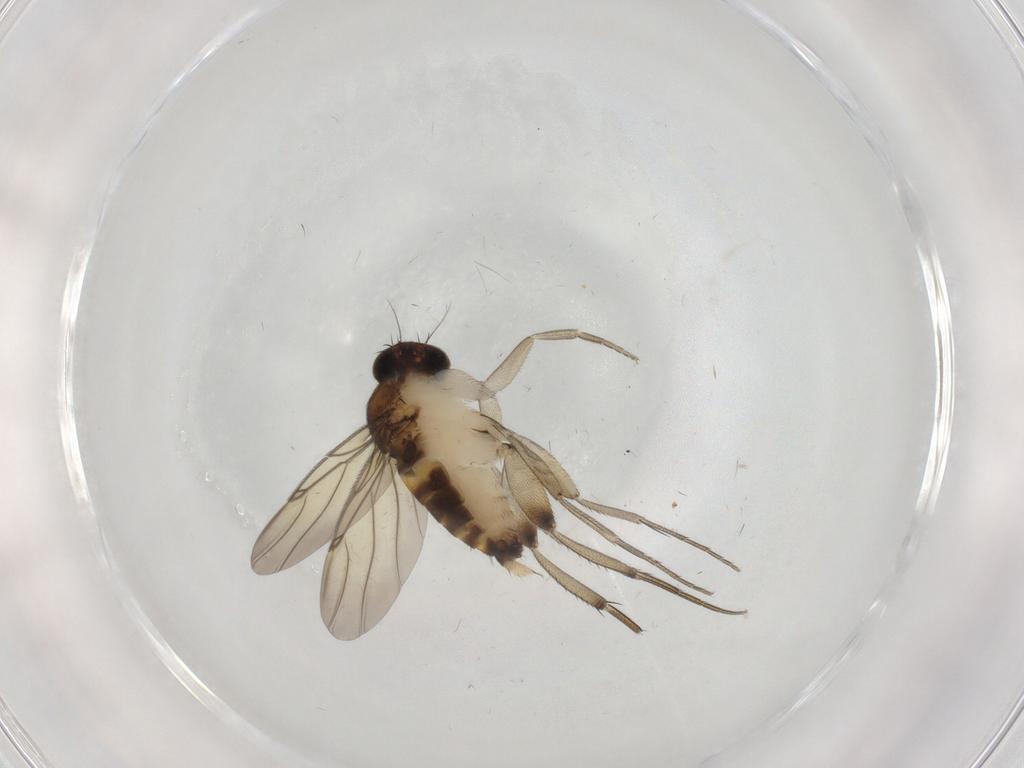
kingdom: Animalia
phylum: Arthropoda
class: Insecta
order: Diptera
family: Phoridae
